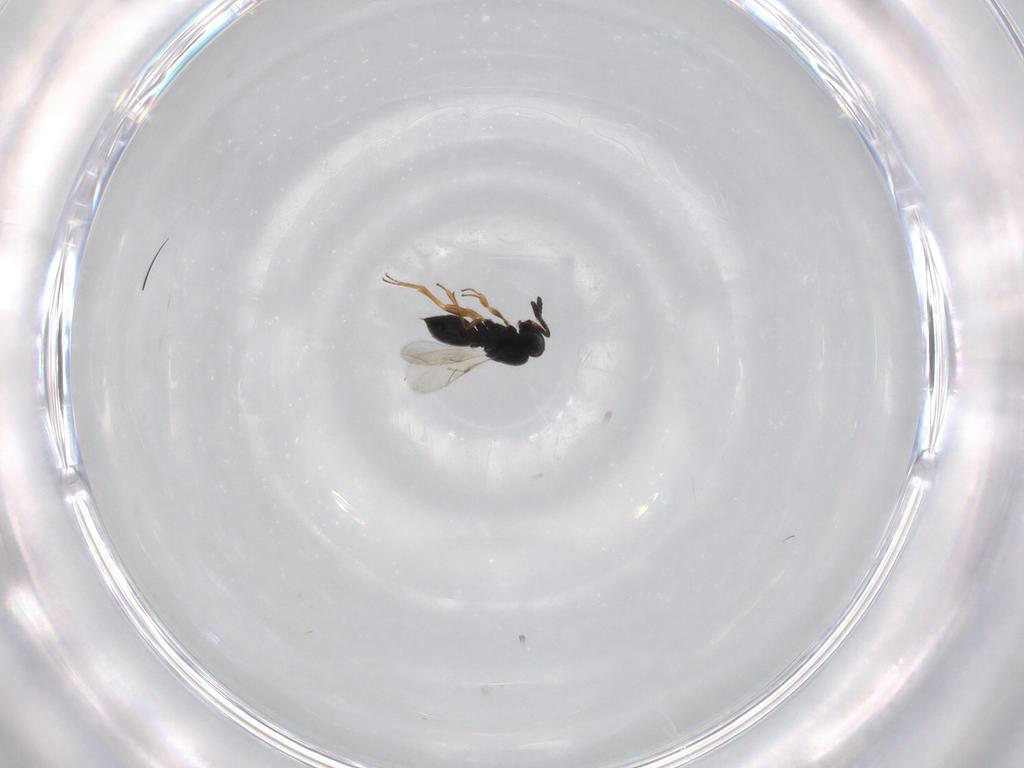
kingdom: Animalia
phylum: Arthropoda
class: Insecta
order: Hymenoptera
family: Scelionidae
